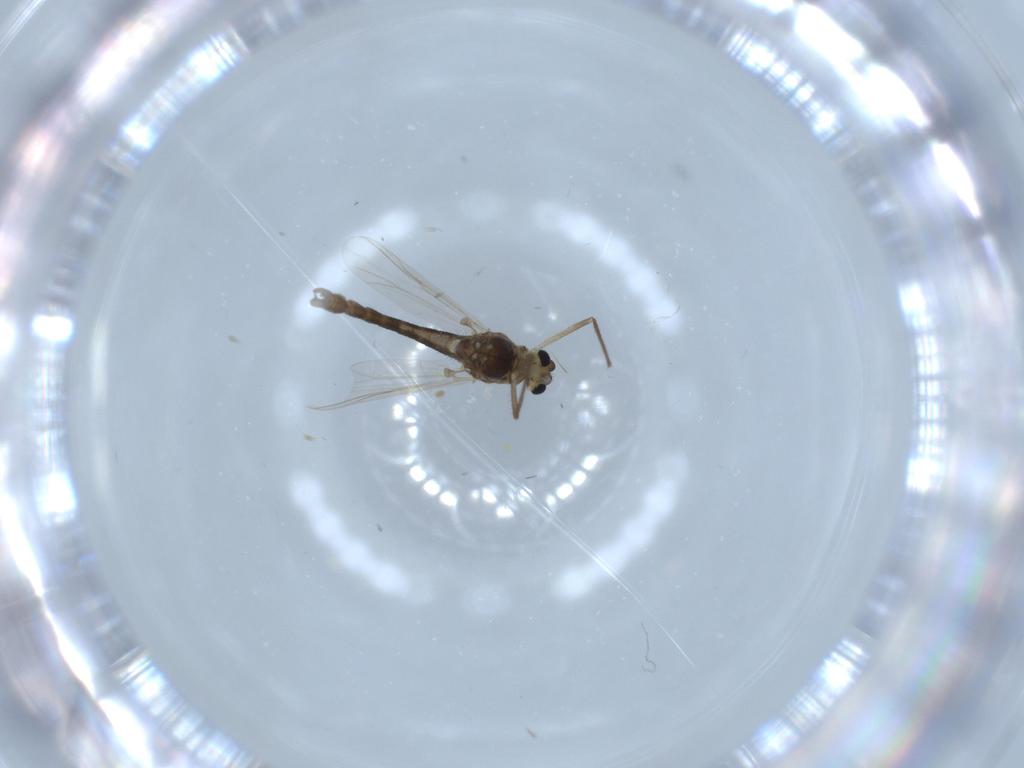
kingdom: Animalia
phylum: Arthropoda
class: Insecta
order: Diptera
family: Chironomidae
